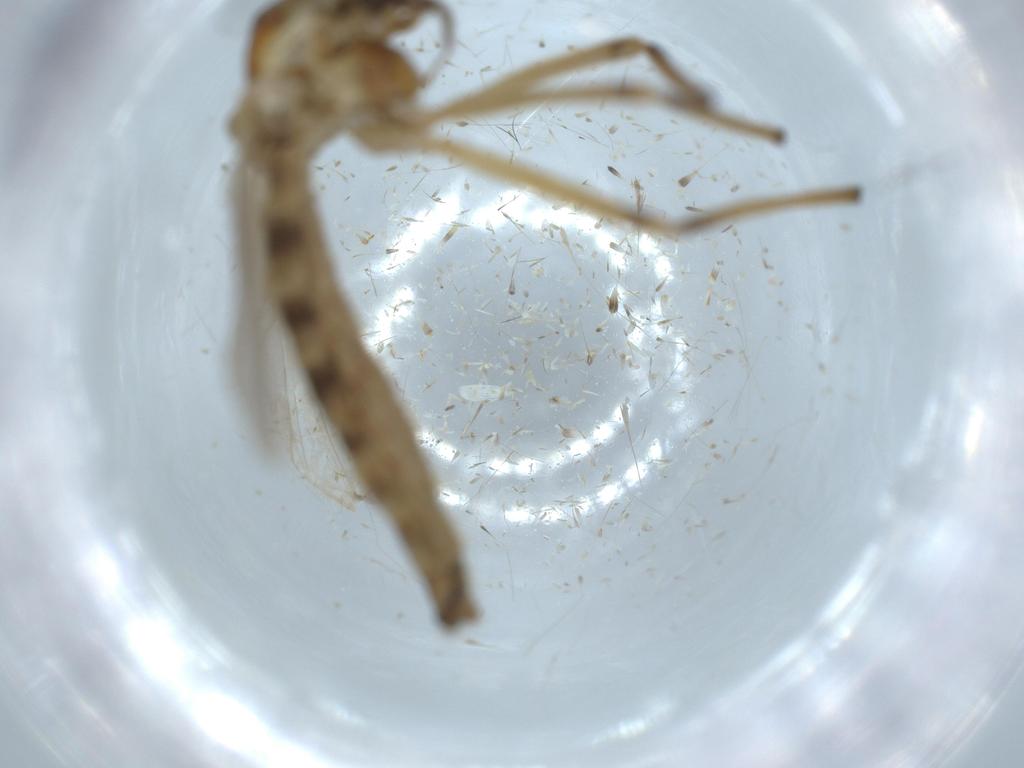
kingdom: Animalia
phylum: Arthropoda
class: Insecta
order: Diptera
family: Chironomidae
